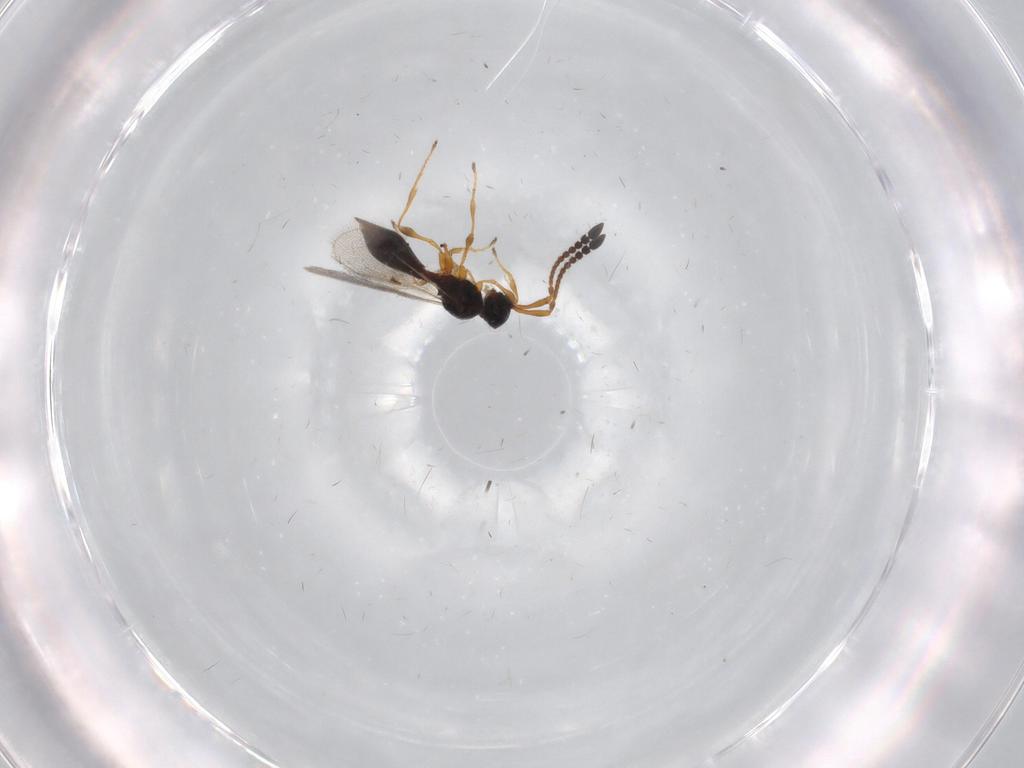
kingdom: Animalia
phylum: Arthropoda
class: Insecta
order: Hymenoptera
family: Diapriidae
